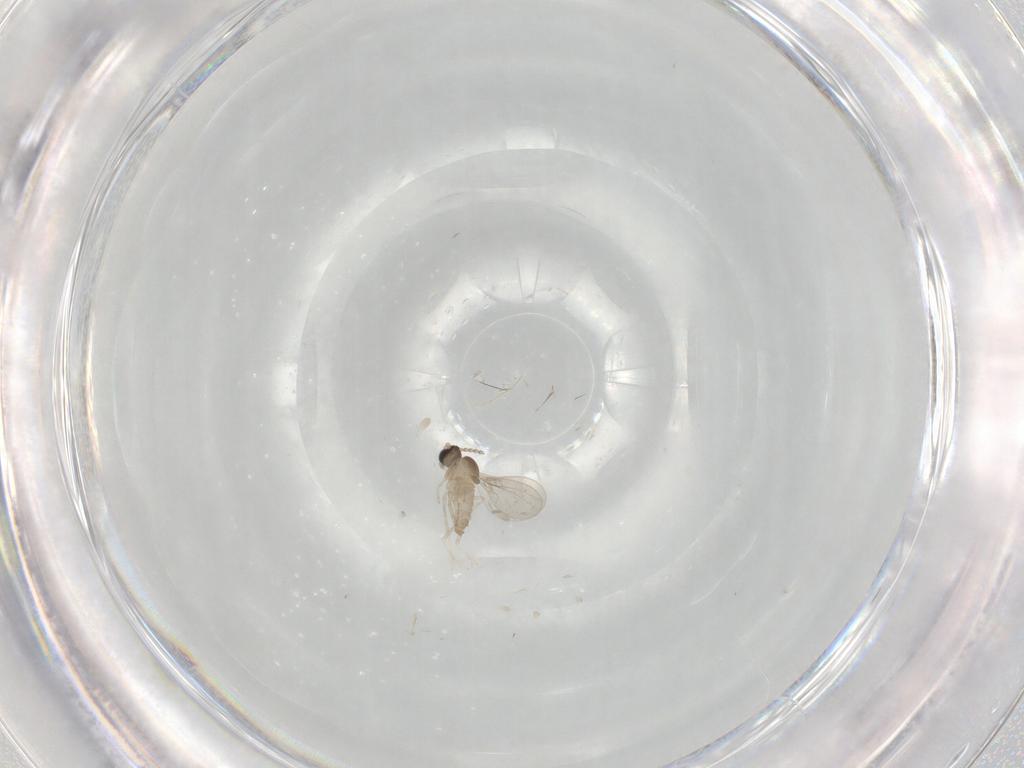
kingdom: Animalia
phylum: Arthropoda
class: Insecta
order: Diptera
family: Cecidomyiidae
